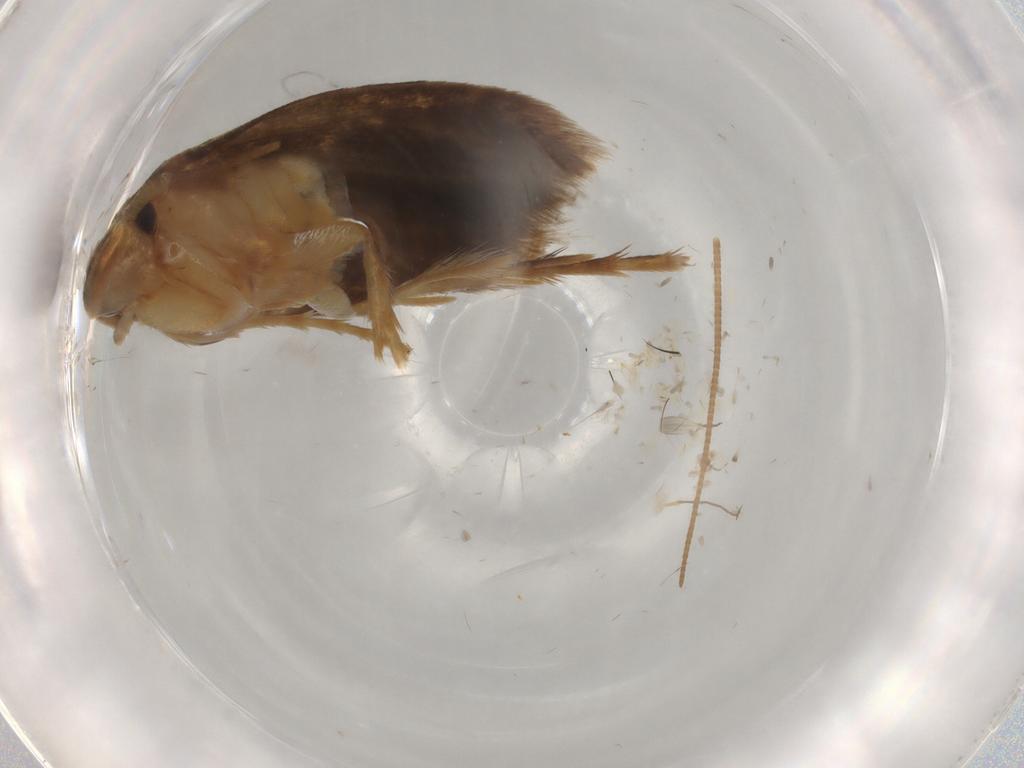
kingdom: Animalia
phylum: Arthropoda
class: Insecta
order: Lepidoptera
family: Tineidae
